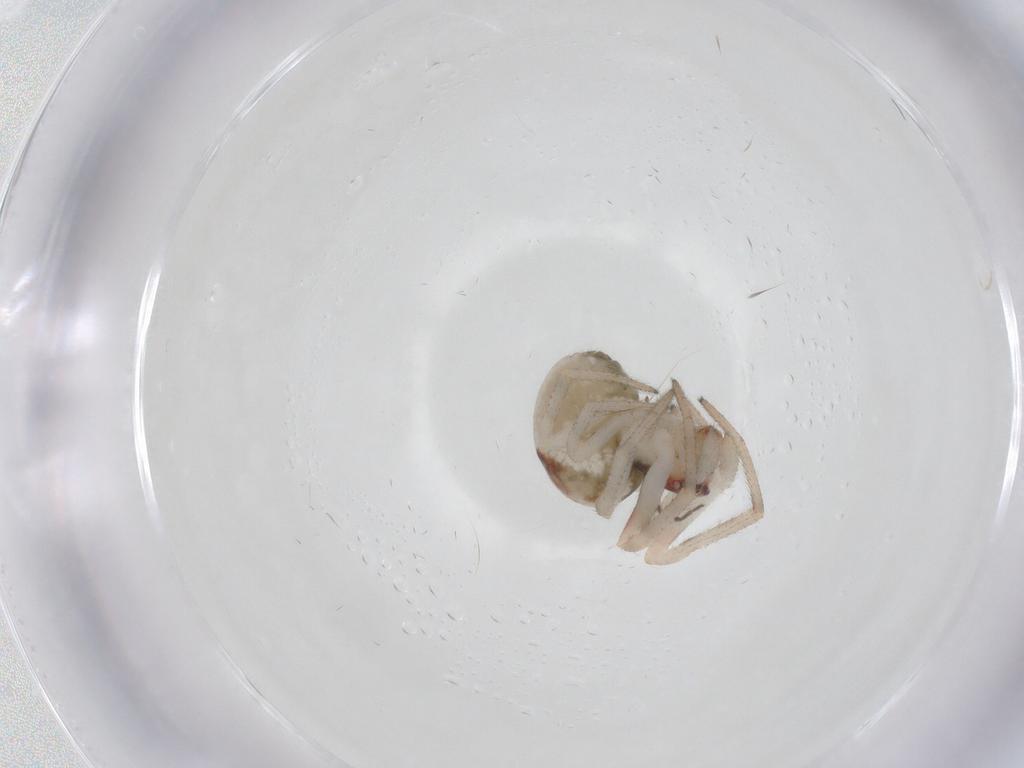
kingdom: Animalia
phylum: Arthropoda
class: Arachnida
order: Araneae
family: Theridiidae
